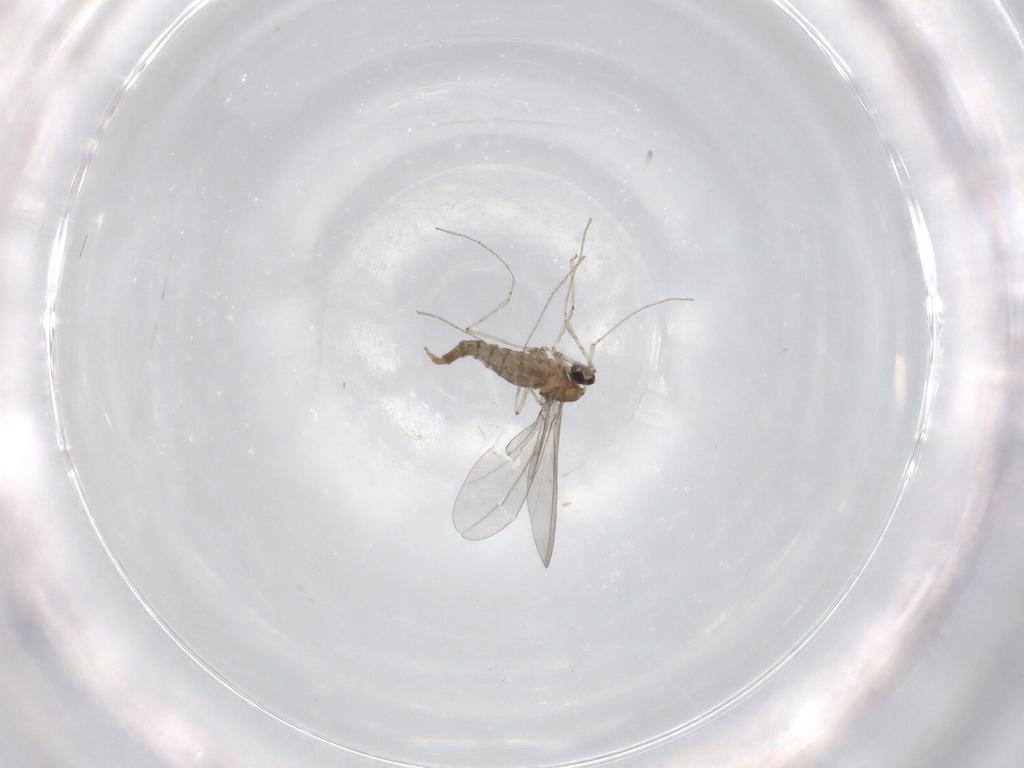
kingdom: Animalia
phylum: Arthropoda
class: Insecta
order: Diptera
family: Cecidomyiidae
